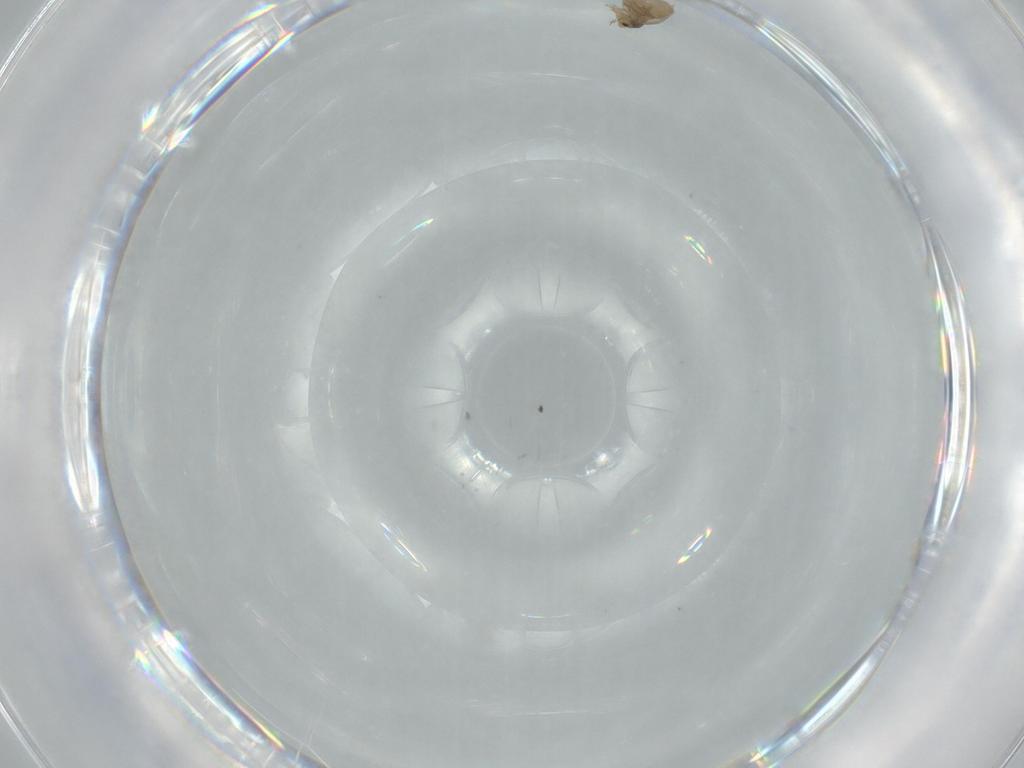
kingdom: Animalia
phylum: Arthropoda
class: Insecta
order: Diptera
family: Phoridae
